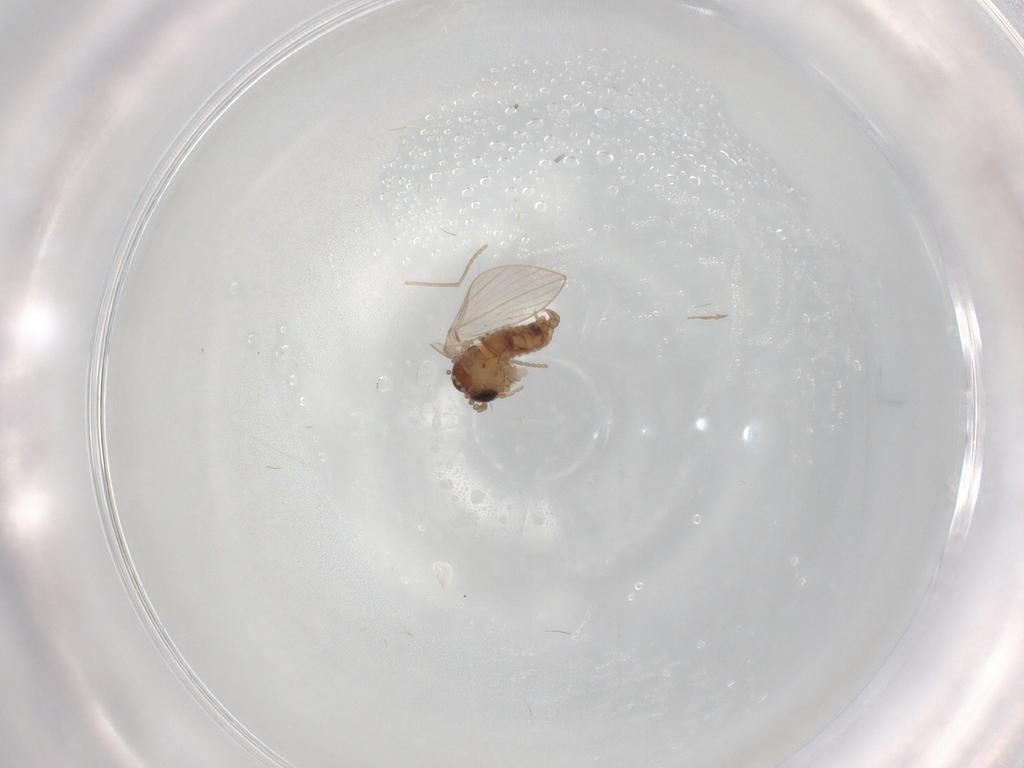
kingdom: Animalia
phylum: Arthropoda
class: Insecta
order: Diptera
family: Psychodidae
